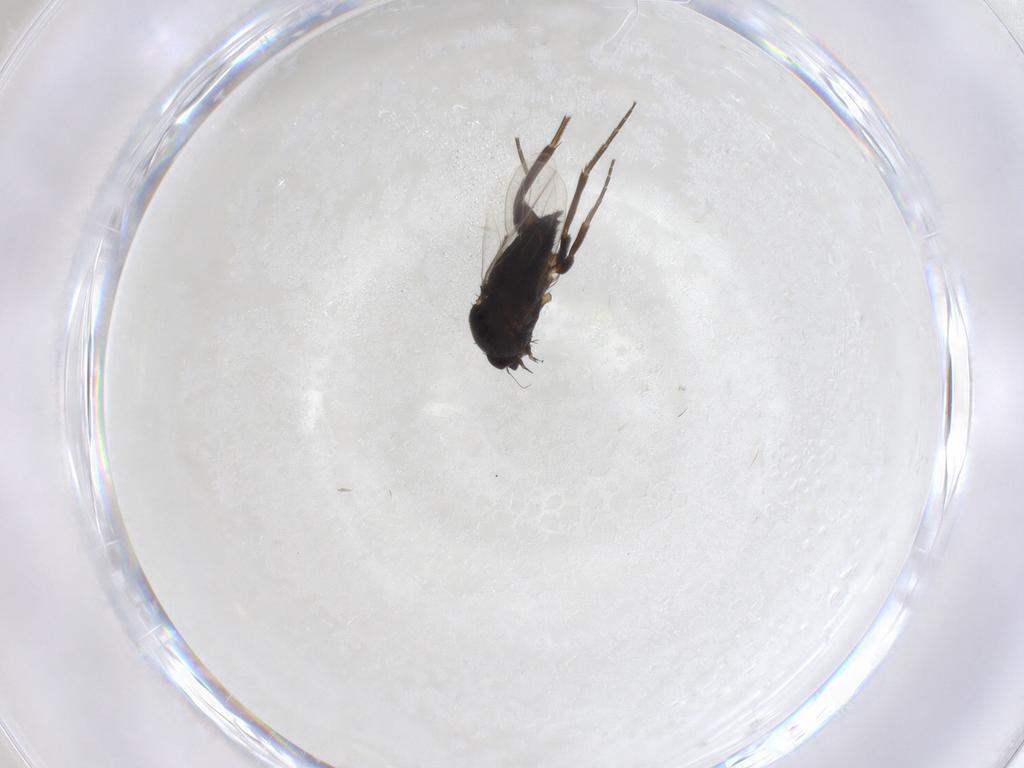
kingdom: Animalia
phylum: Arthropoda
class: Insecta
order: Diptera
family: Phoridae
